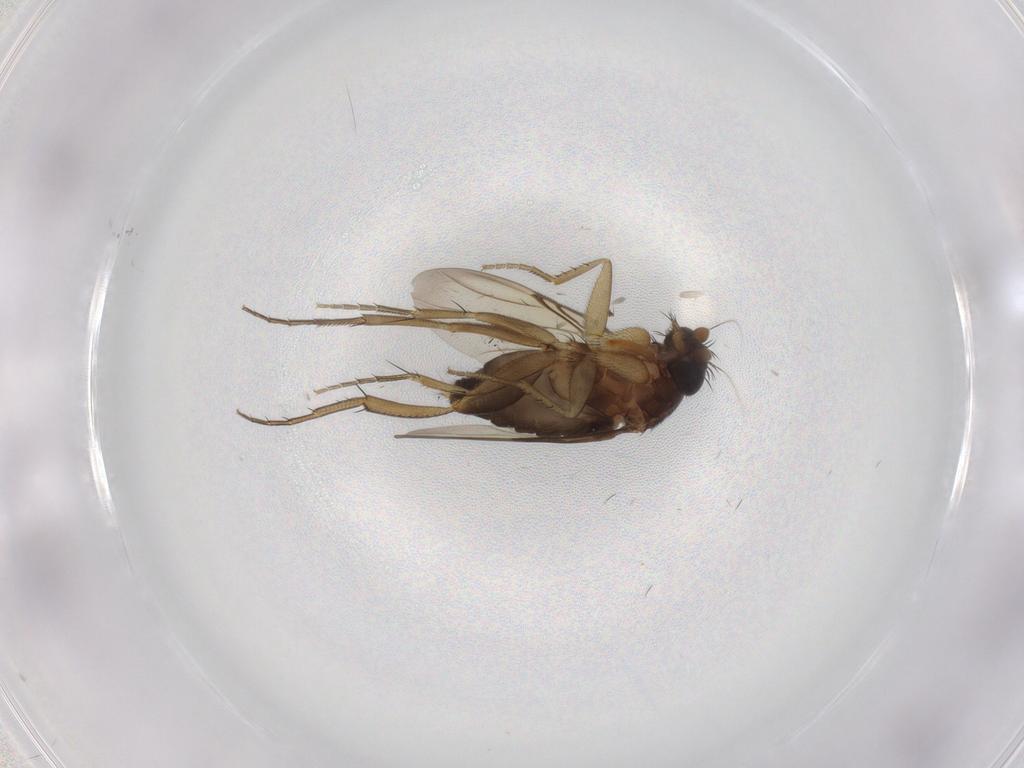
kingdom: Animalia
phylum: Arthropoda
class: Insecta
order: Diptera
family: Phoridae
